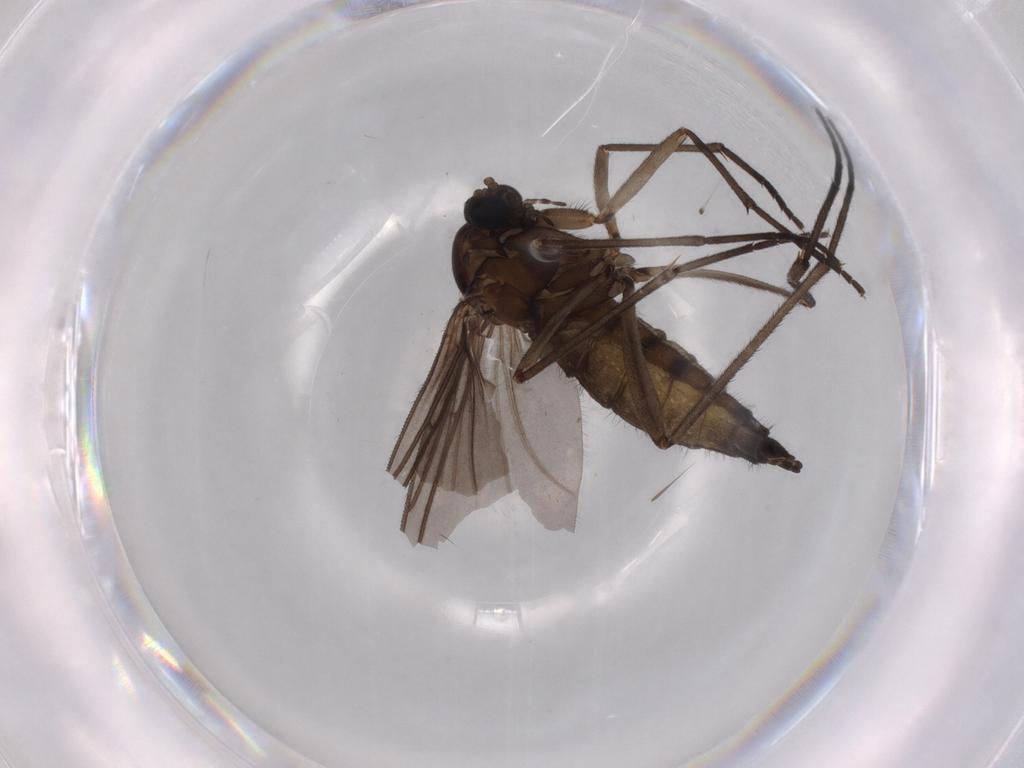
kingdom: Animalia
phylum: Arthropoda
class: Insecta
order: Diptera
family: Sciaridae
